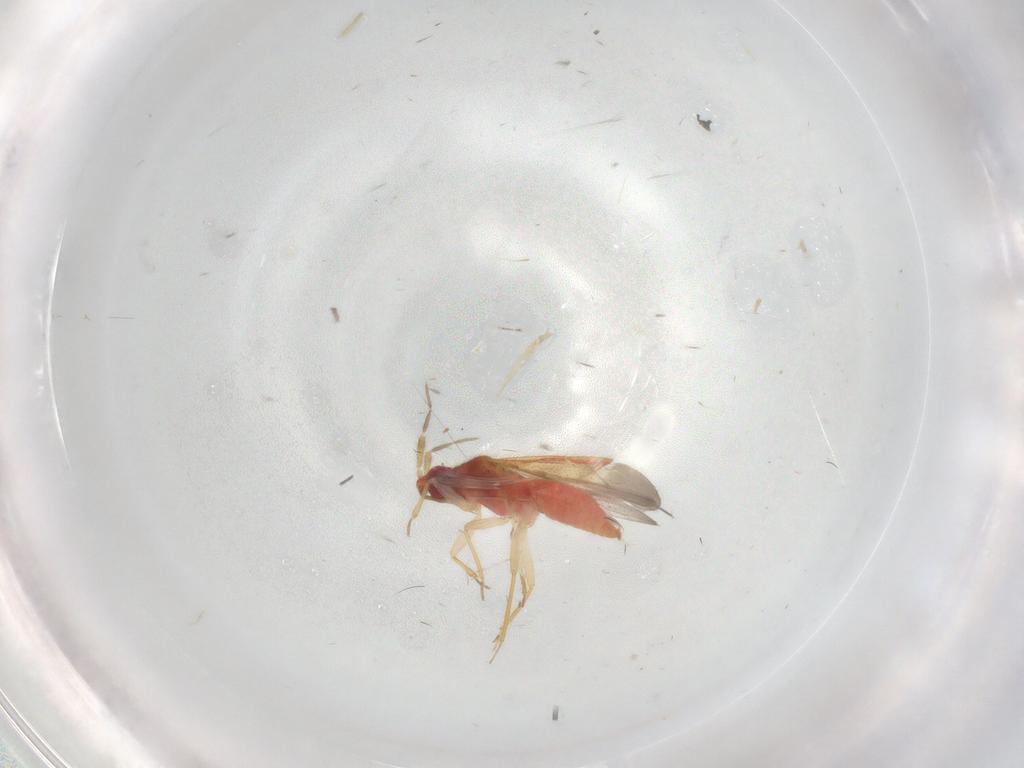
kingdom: Animalia
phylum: Arthropoda
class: Insecta
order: Hemiptera
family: Anthocoridae
